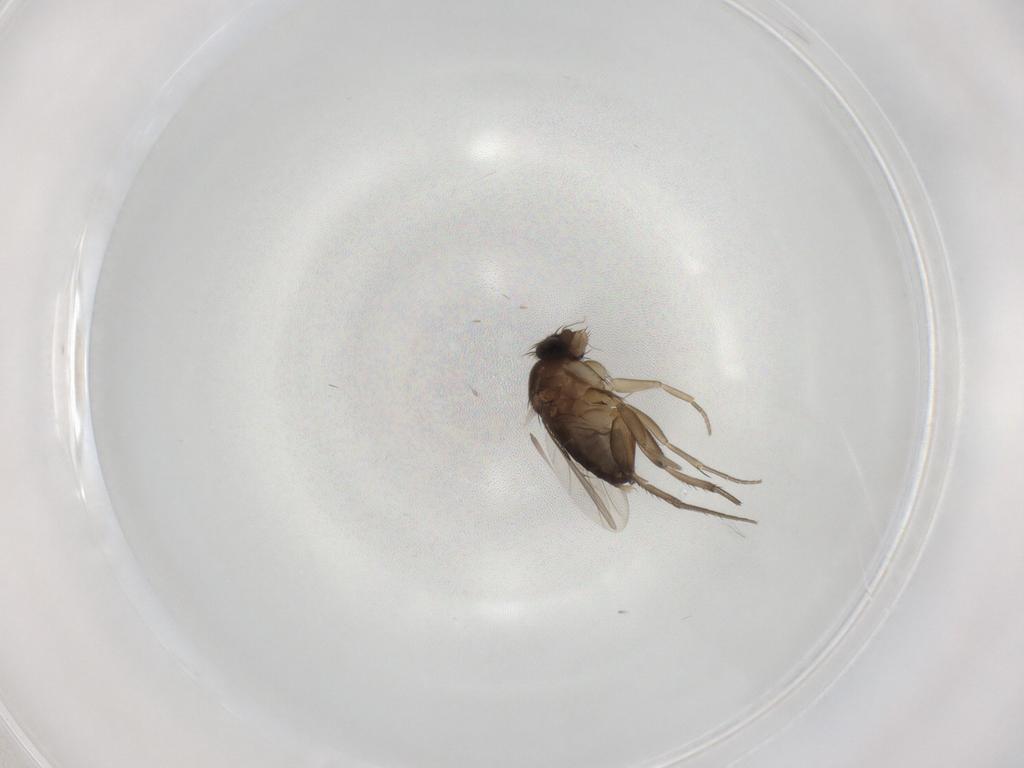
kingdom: Animalia
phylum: Arthropoda
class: Insecta
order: Diptera
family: Phoridae
